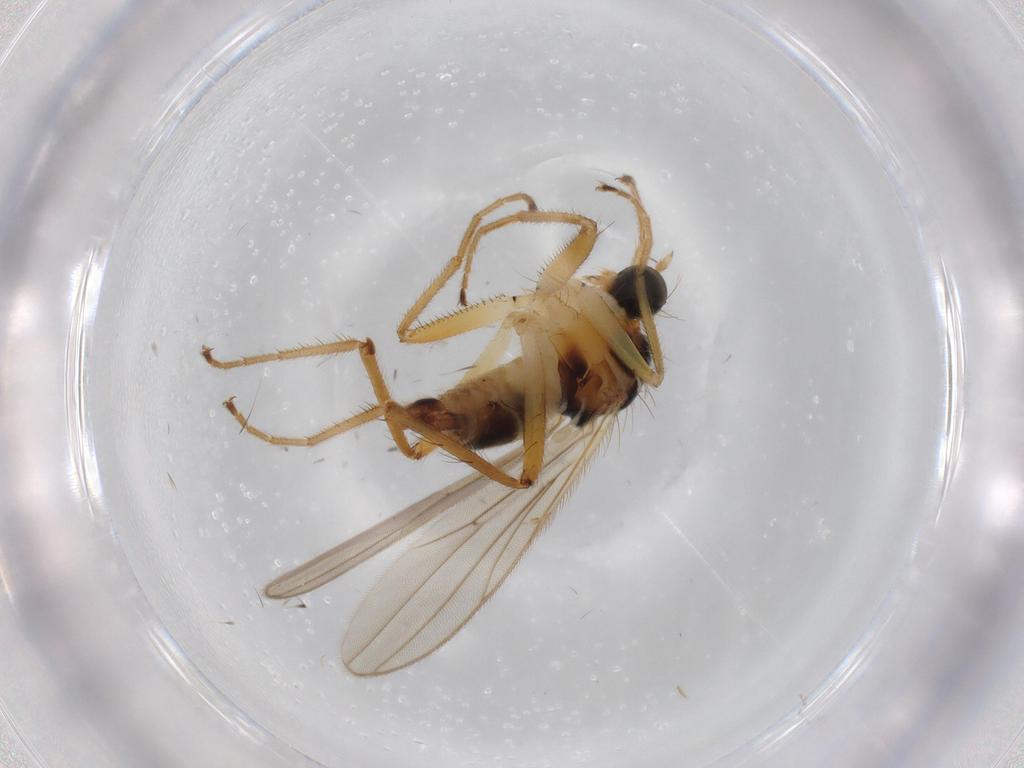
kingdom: Animalia
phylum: Arthropoda
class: Insecta
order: Diptera
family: Hybotidae
